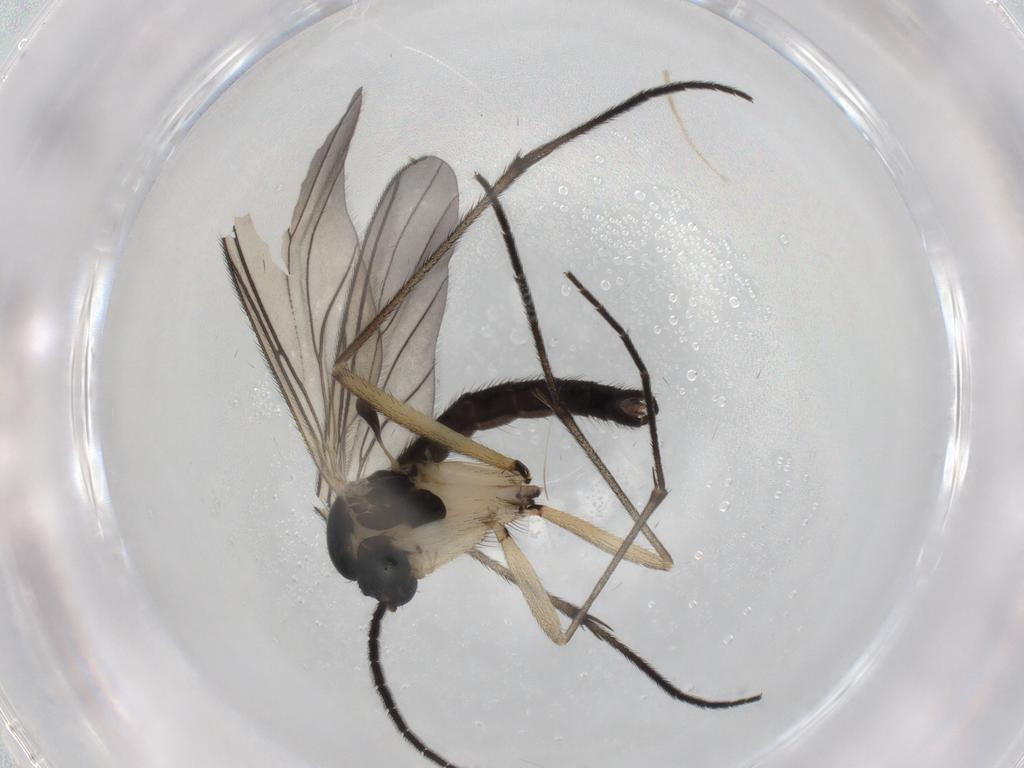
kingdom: Animalia
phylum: Arthropoda
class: Insecta
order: Diptera
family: Sciaridae
